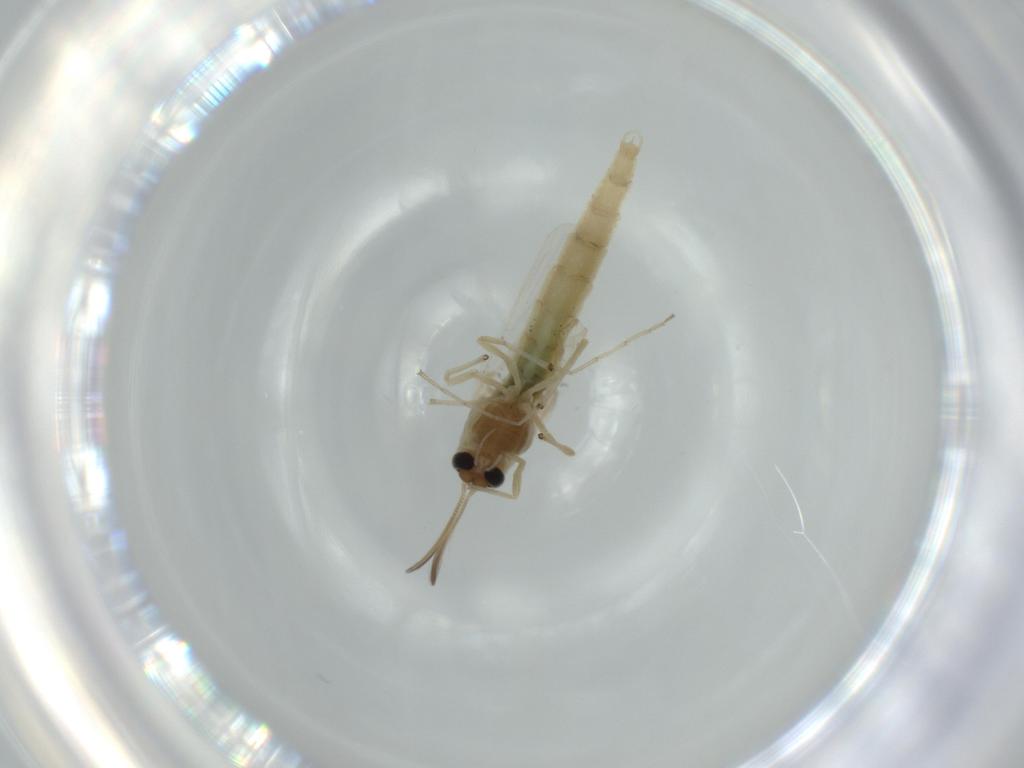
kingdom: Animalia
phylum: Arthropoda
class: Insecta
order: Diptera
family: Chironomidae
